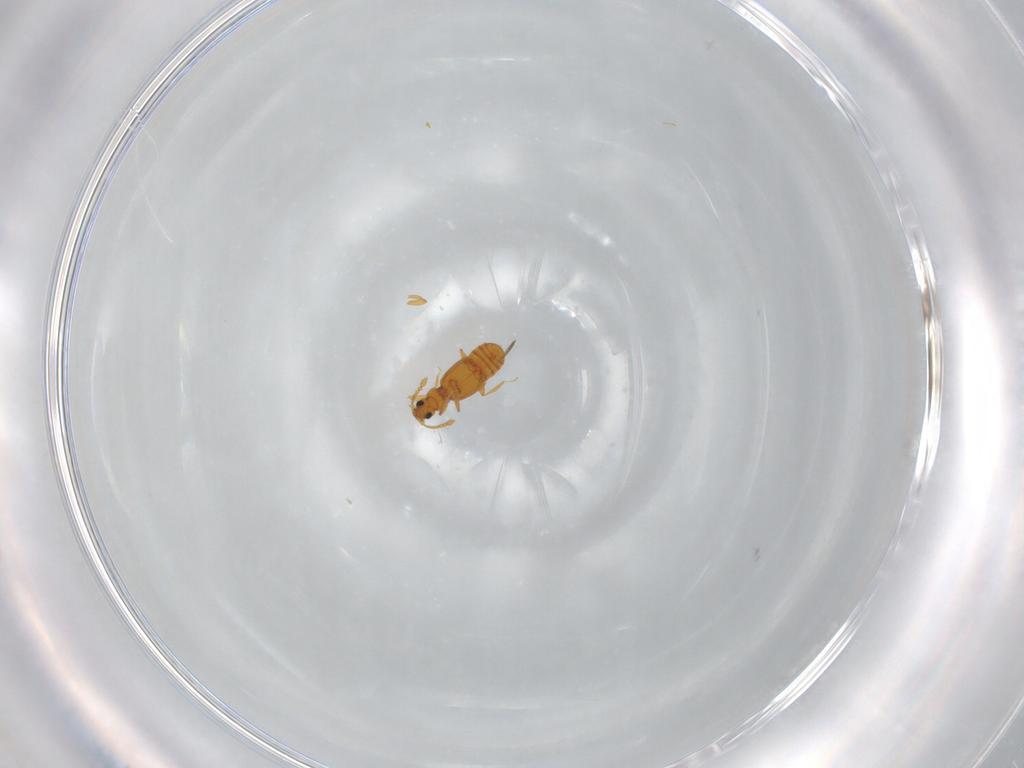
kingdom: Animalia
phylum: Arthropoda
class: Insecta
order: Coleoptera
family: Staphylinidae
